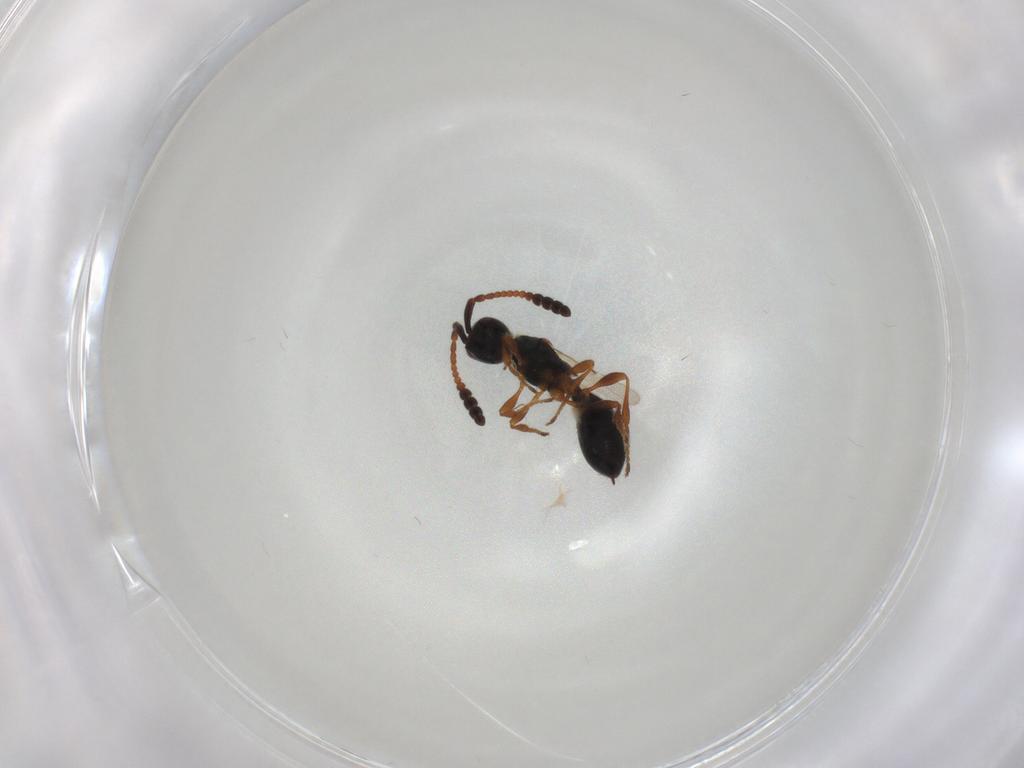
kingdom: Animalia
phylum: Arthropoda
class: Insecta
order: Hymenoptera
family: Diapriidae
